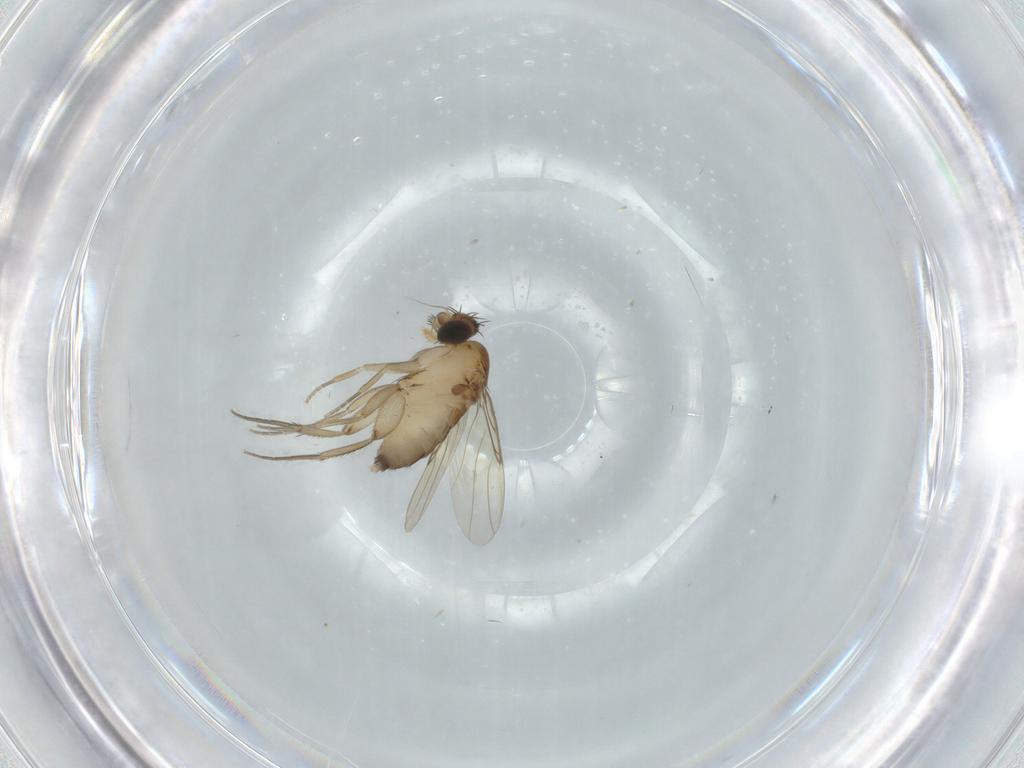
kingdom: Animalia
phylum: Arthropoda
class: Insecta
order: Diptera
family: Phoridae
